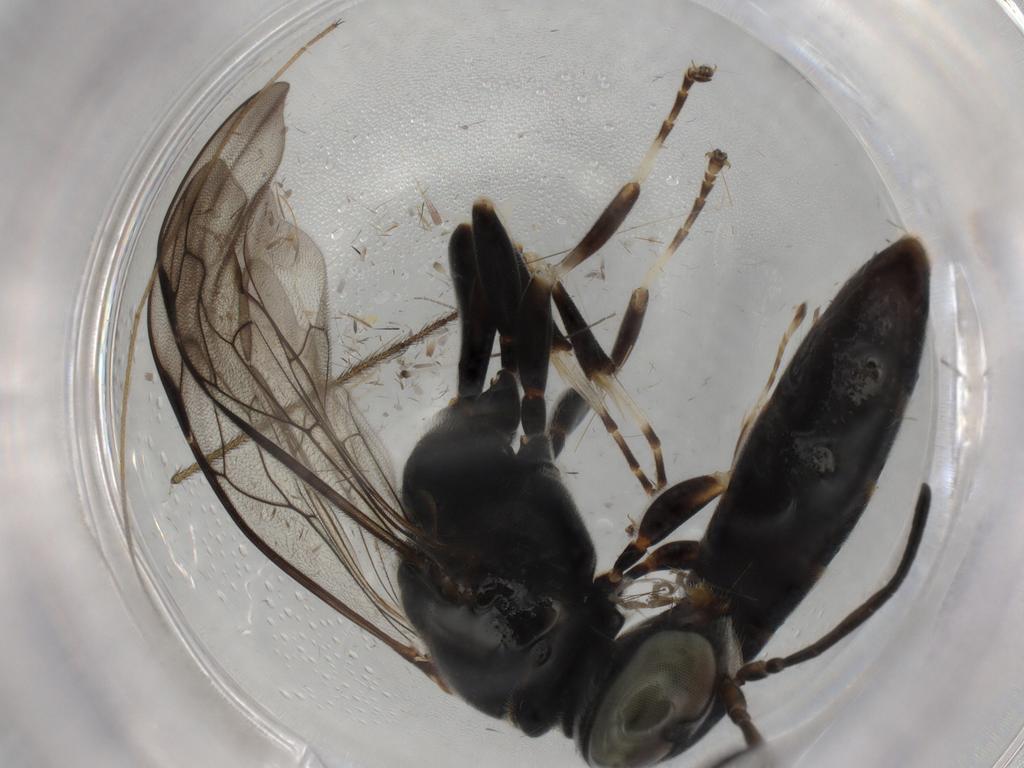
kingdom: Animalia
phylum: Arthropoda
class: Insecta
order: Hymenoptera
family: Crabronidae
